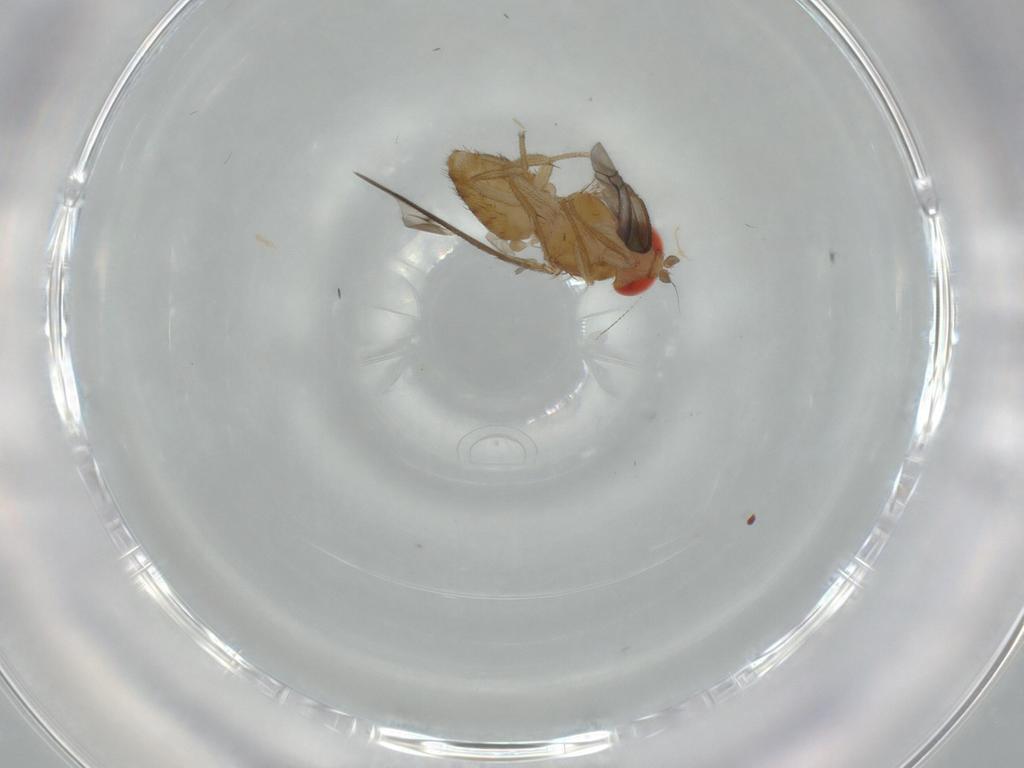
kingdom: Animalia
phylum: Arthropoda
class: Insecta
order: Diptera
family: Drosophilidae
